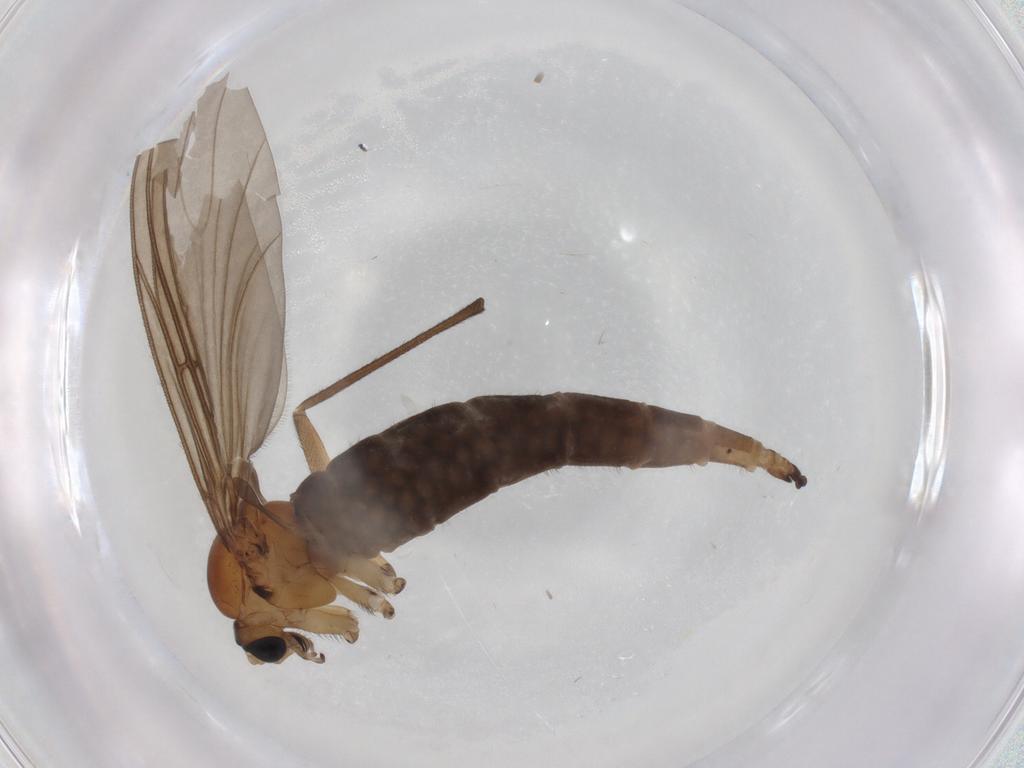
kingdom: Animalia
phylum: Arthropoda
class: Insecta
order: Diptera
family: Sciaridae
